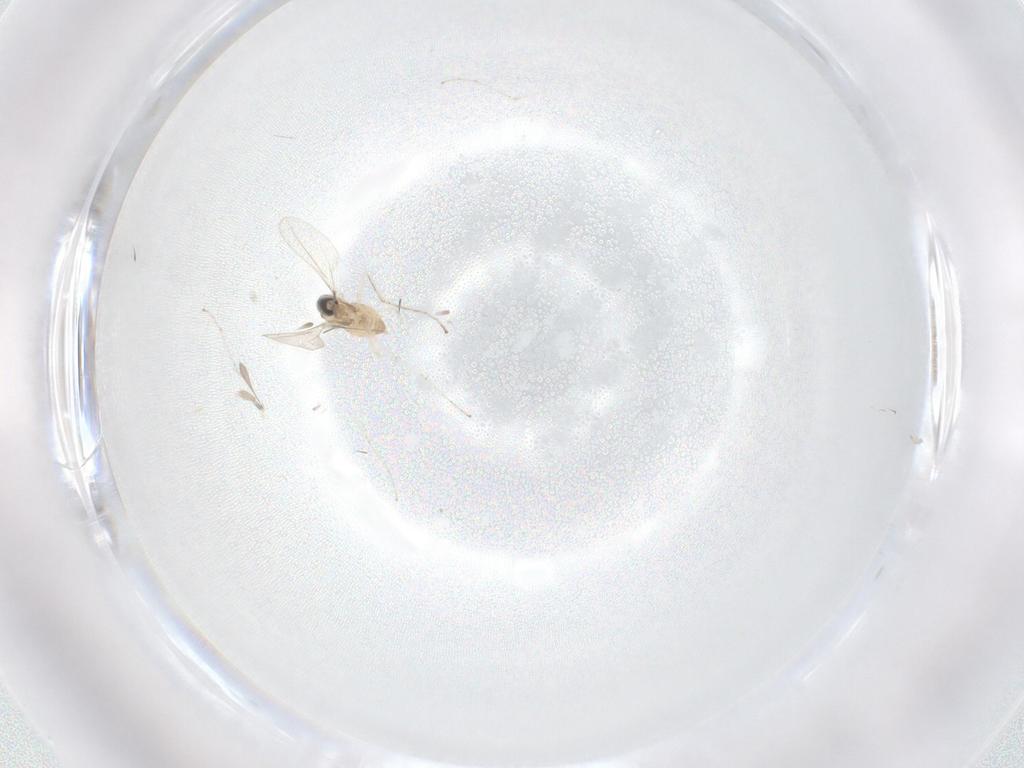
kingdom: Animalia
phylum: Arthropoda
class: Insecta
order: Diptera
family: Cecidomyiidae
